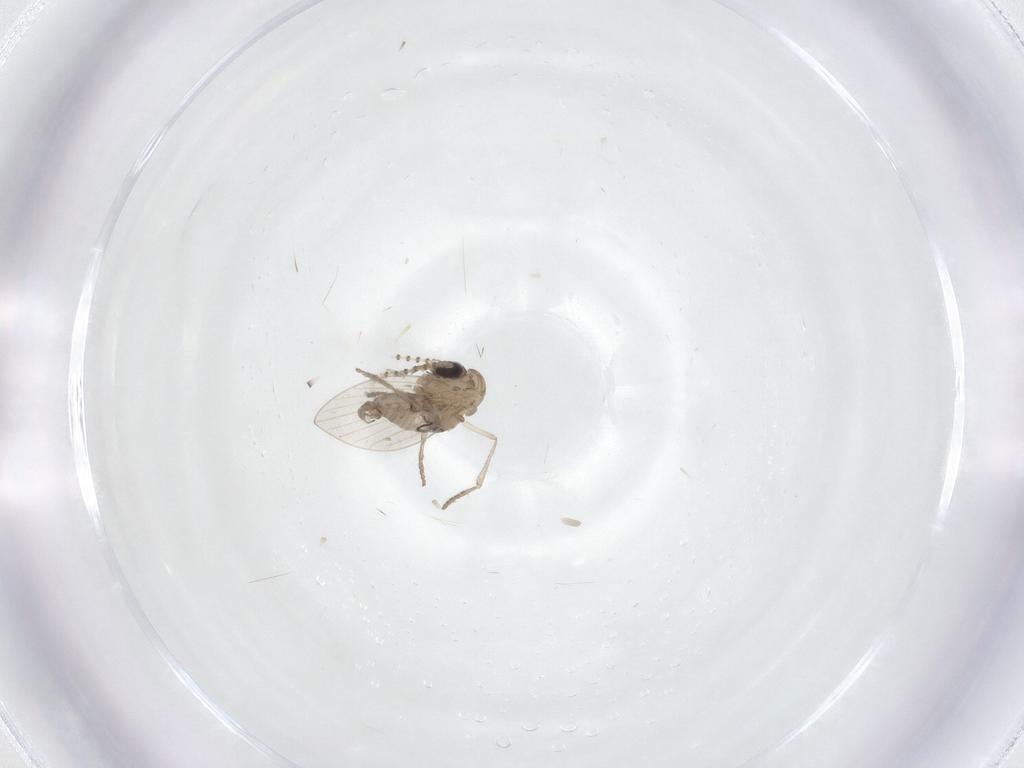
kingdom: Animalia
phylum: Arthropoda
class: Insecta
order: Diptera
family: Psychodidae
